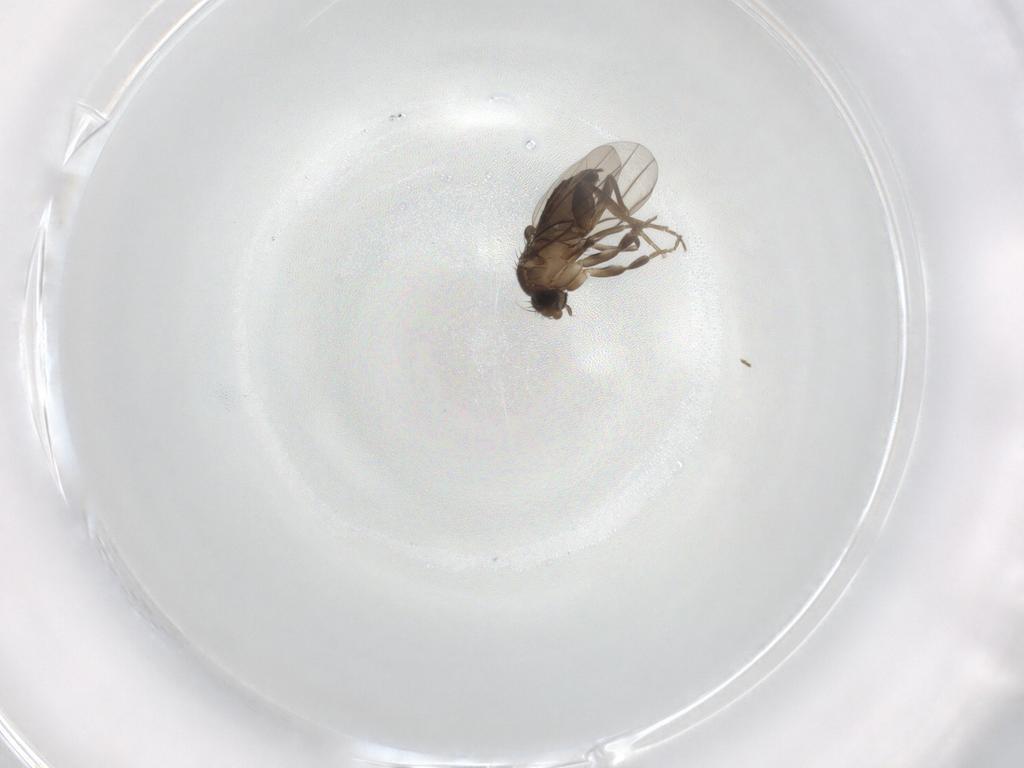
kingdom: Animalia
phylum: Arthropoda
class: Insecta
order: Diptera
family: Phoridae
